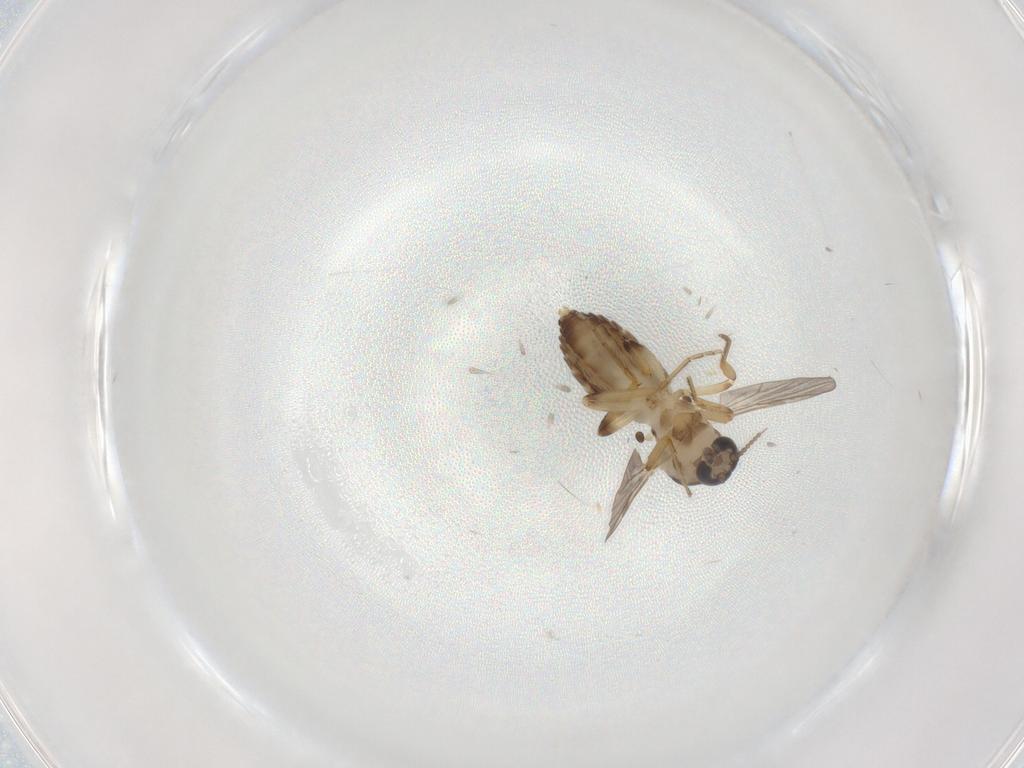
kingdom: Animalia
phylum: Arthropoda
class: Insecta
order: Diptera
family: Ceratopogonidae
